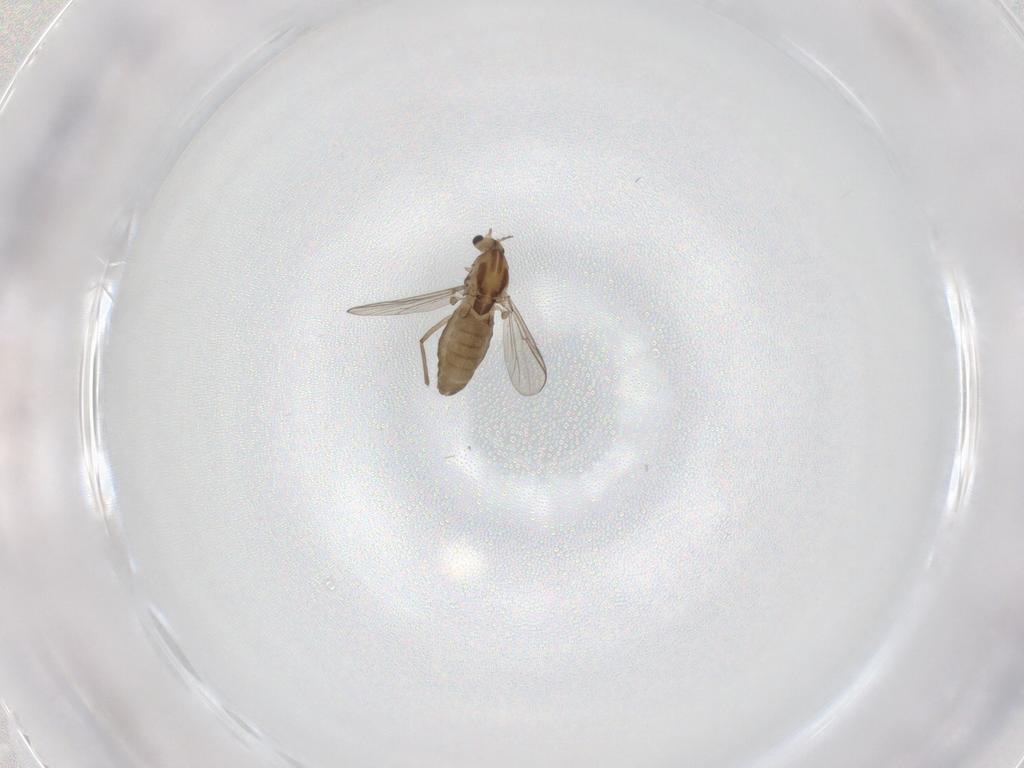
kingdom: Animalia
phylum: Arthropoda
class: Insecta
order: Diptera
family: Chironomidae
